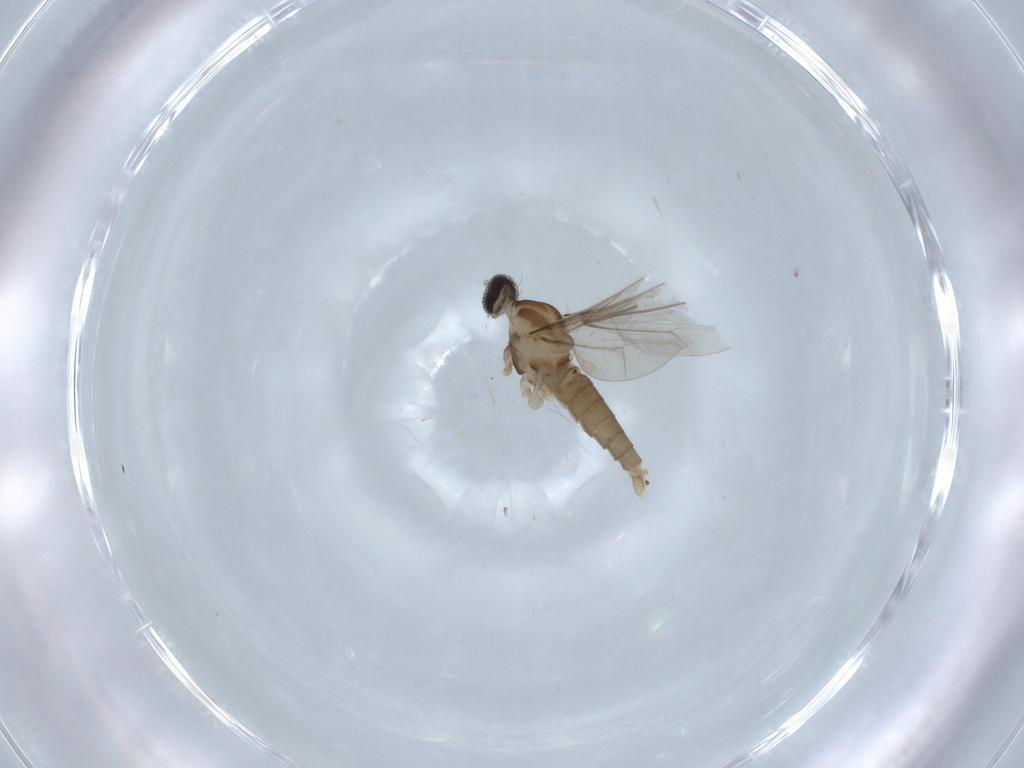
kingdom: Animalia
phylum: Arthropoda
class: Insecta
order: Diptera
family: Cecidomyiidae
